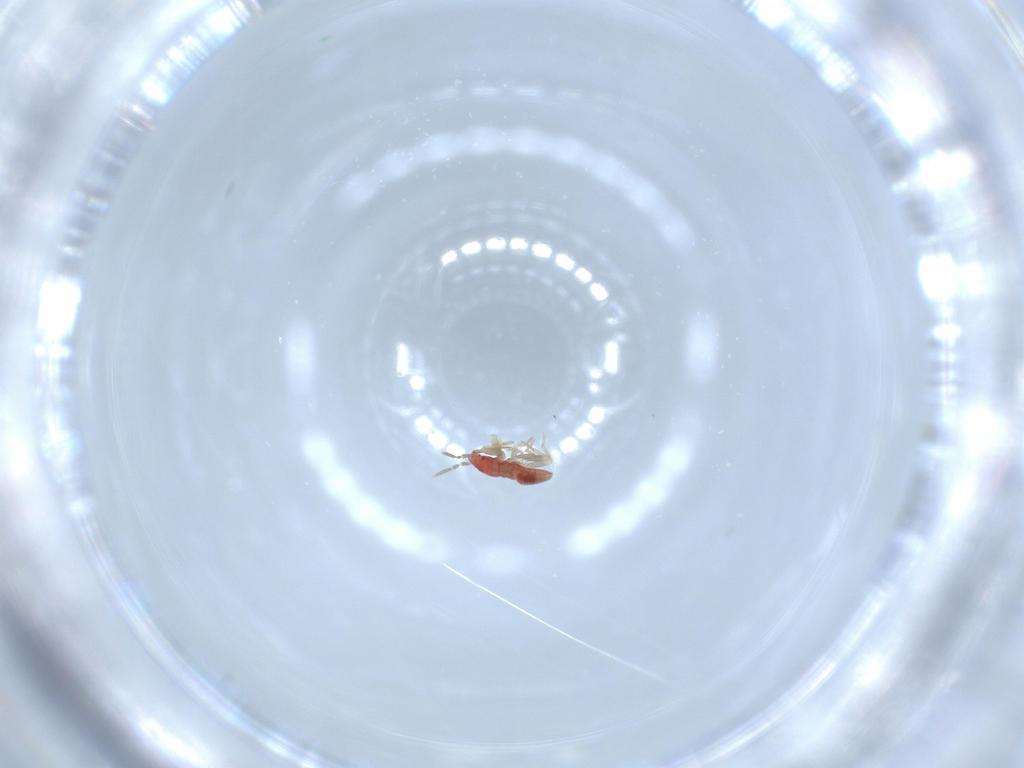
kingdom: Animalia
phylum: Arthropoda
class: Insecta
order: Hemiptera
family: Anthocoridae
